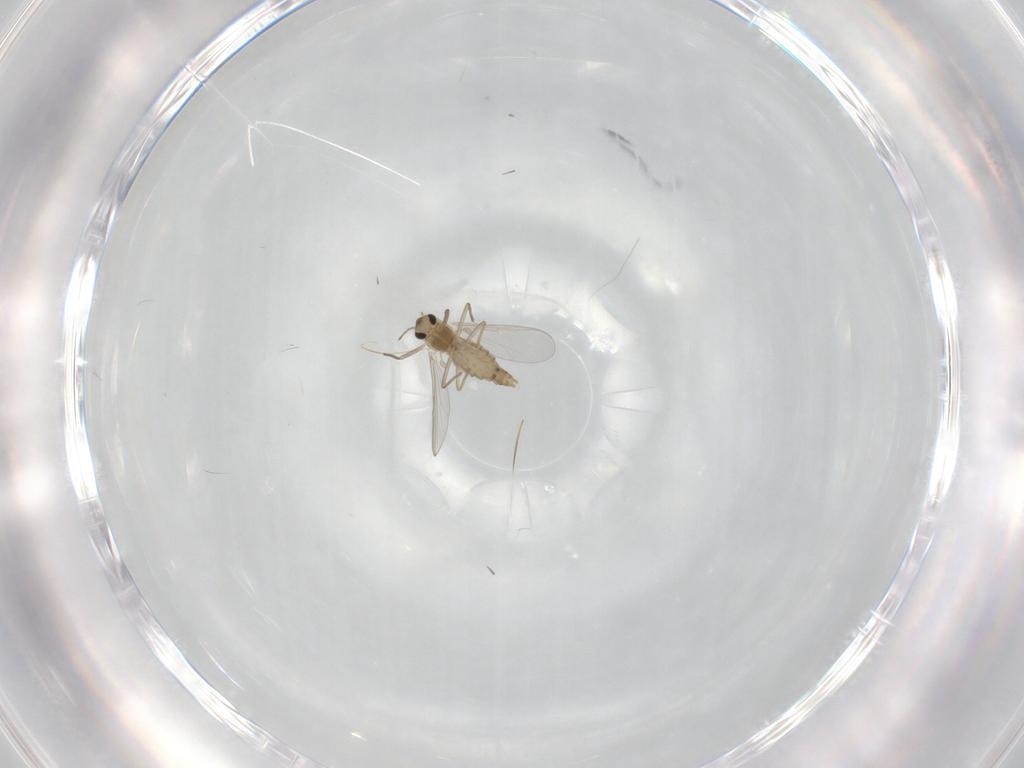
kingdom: Animalia
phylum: Arthropoda
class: Insecta
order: Diptera
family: Chironomidae
